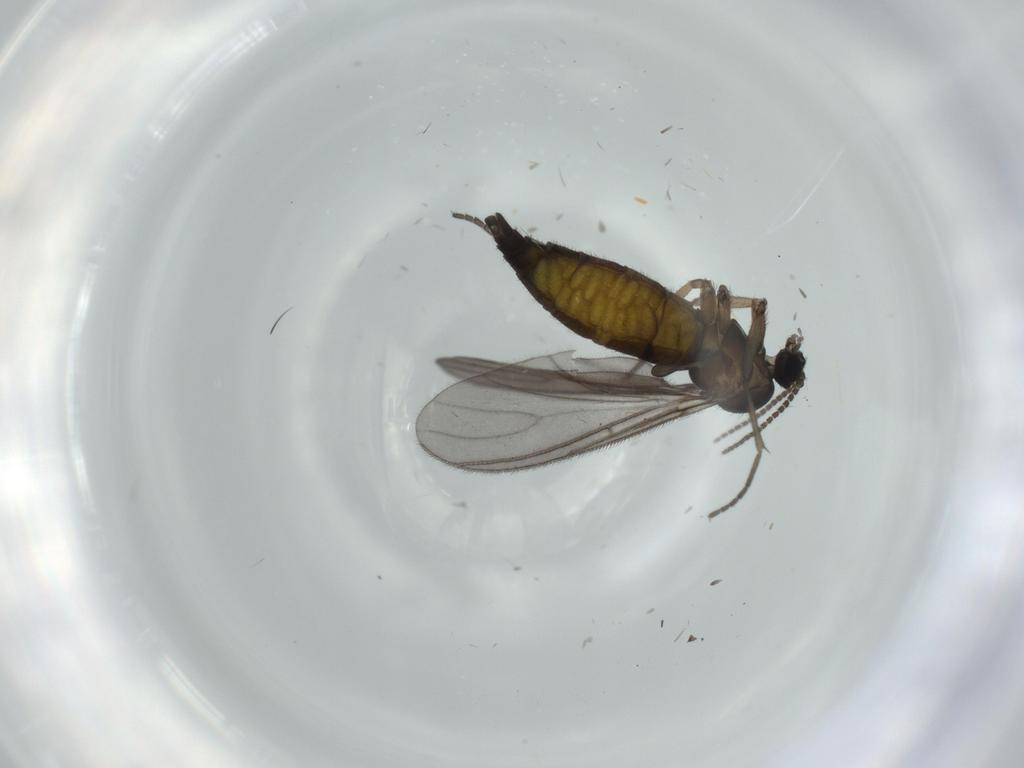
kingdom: Animalia
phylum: Arthropoda
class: Insecta
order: Diptera
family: Sciaridae
